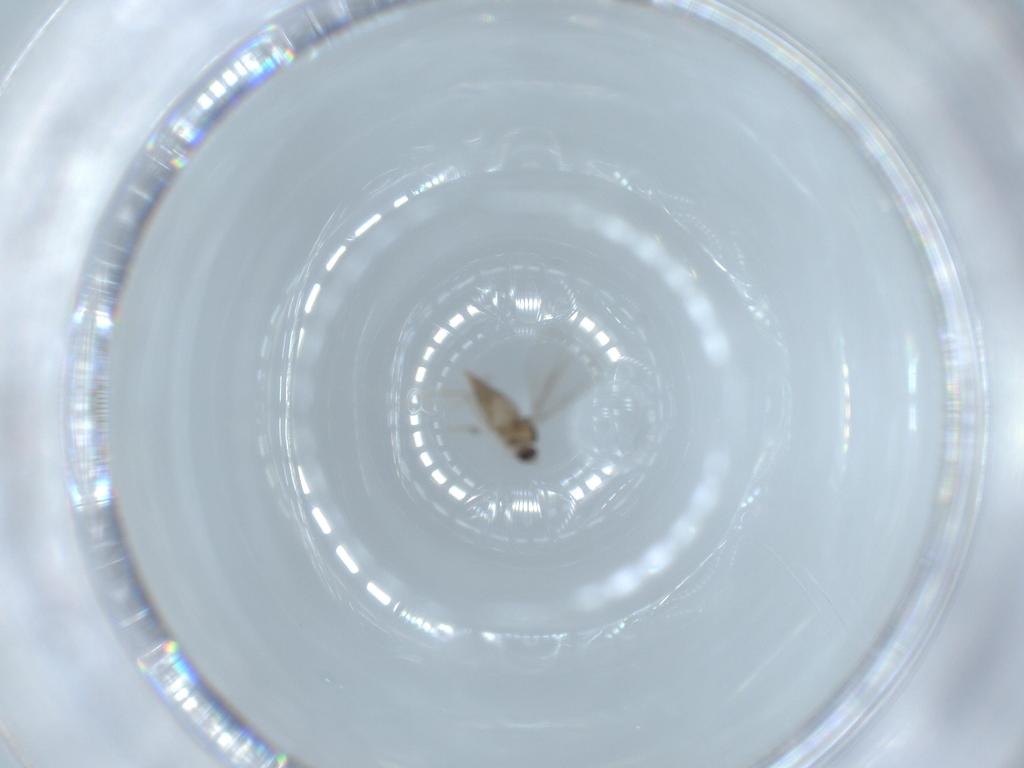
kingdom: Animalia
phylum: Arthropoda
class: Insecta
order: Diptera
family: Cecidomyiidae
